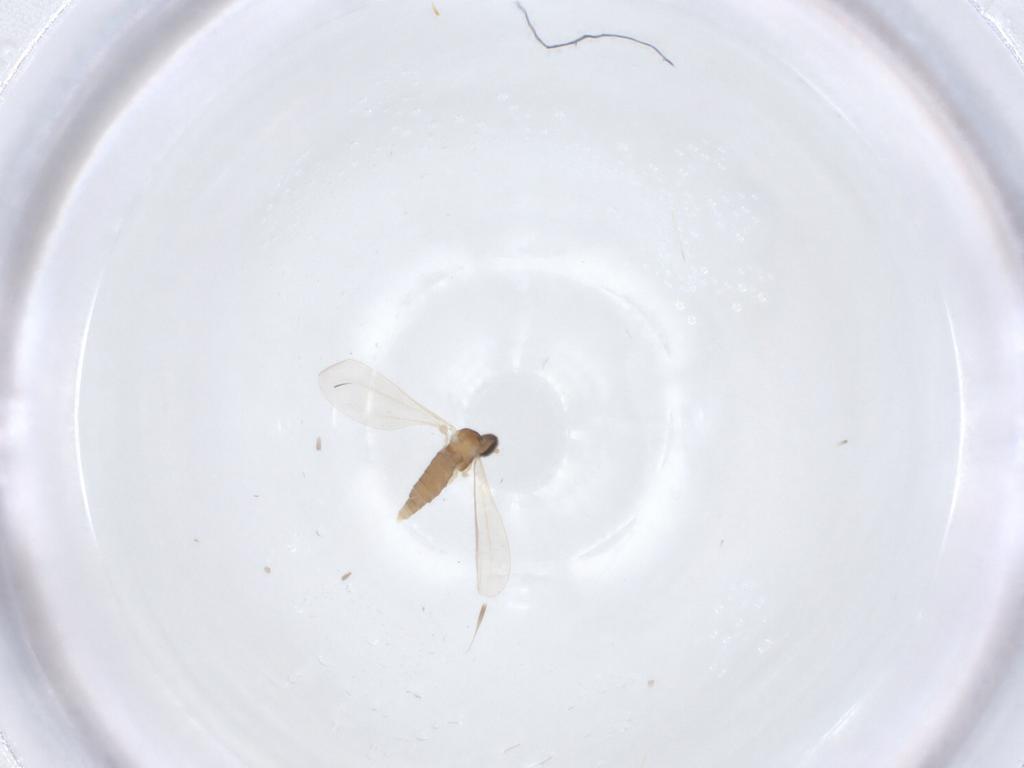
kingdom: Animalia
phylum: Arthropoda
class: Insecta
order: Diptera
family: Cecidomyiidae
